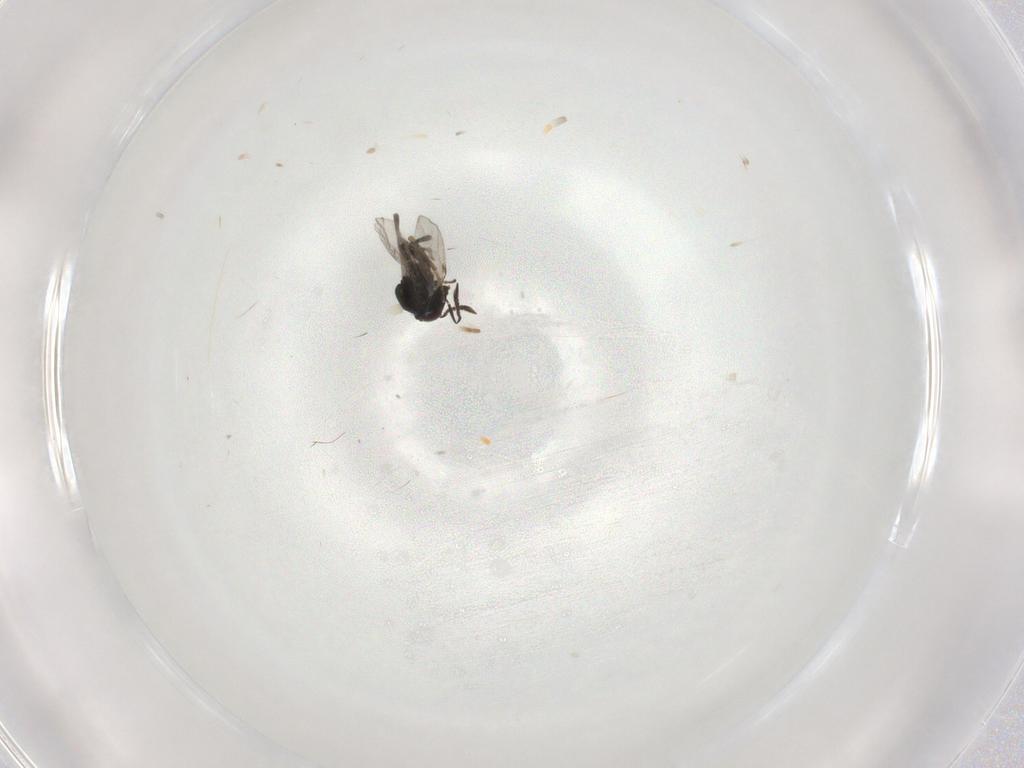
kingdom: Animalia
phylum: Arthropoda
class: Insecta
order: Hymenoptera
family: Encyrtidae
